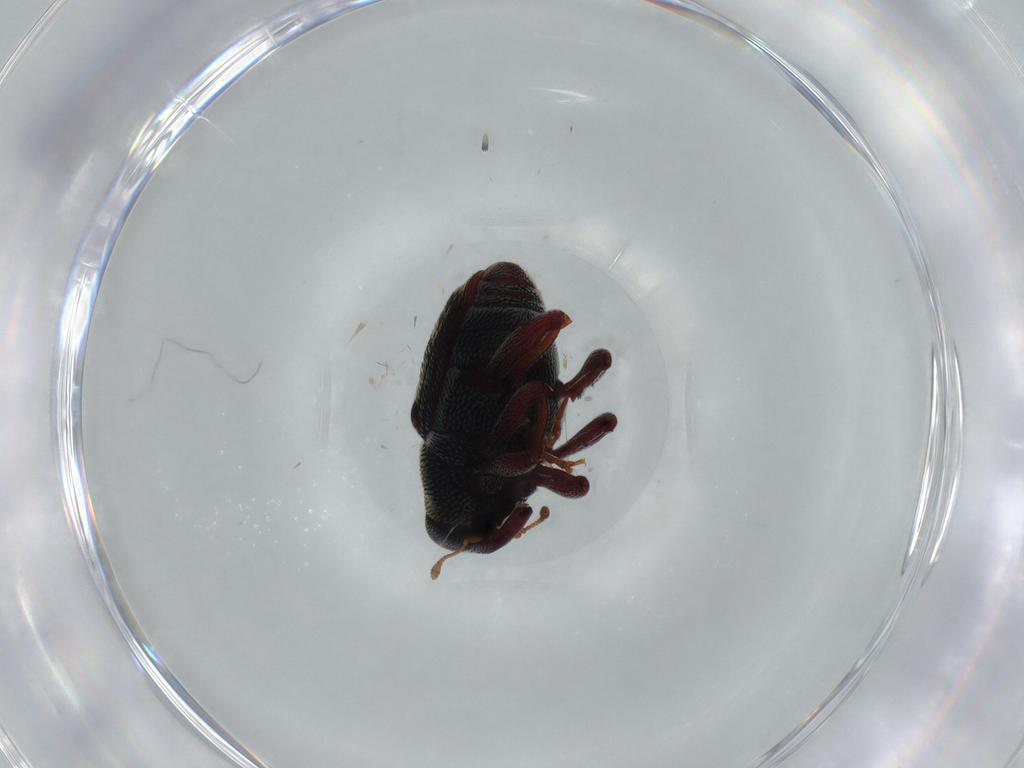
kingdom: Animalia
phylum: Arthropoda
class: Insecta
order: Coleoptera
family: Curculionidae
